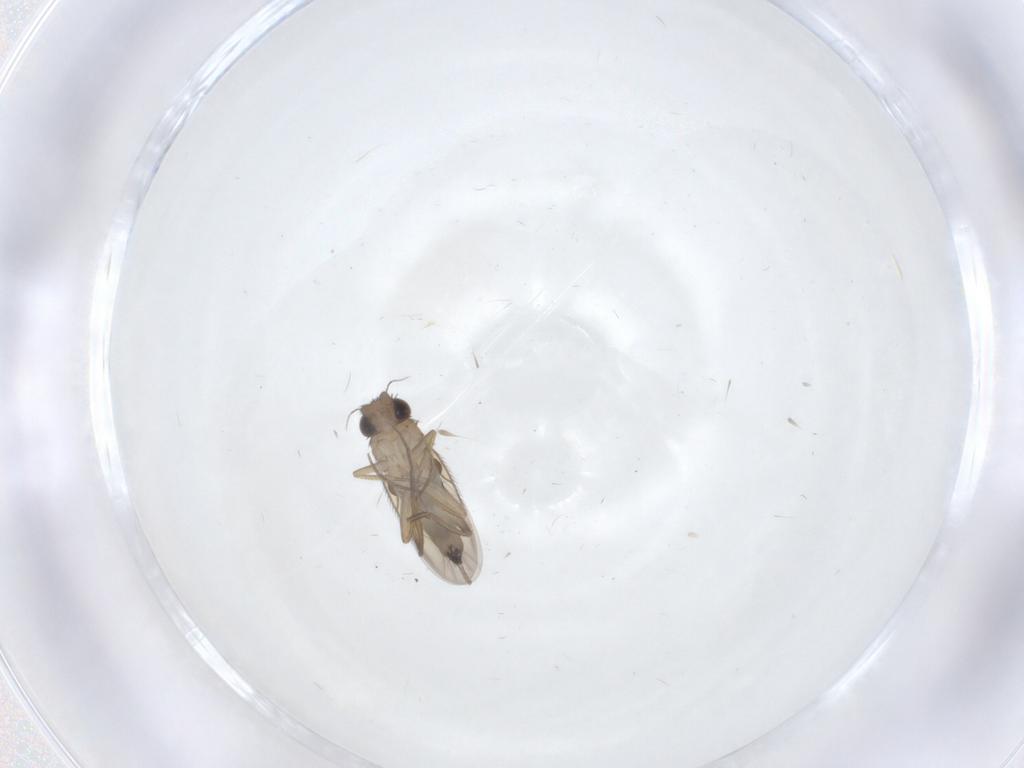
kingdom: Animalia
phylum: Arthropoda
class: Insecta
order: Diptera
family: Phoridae
